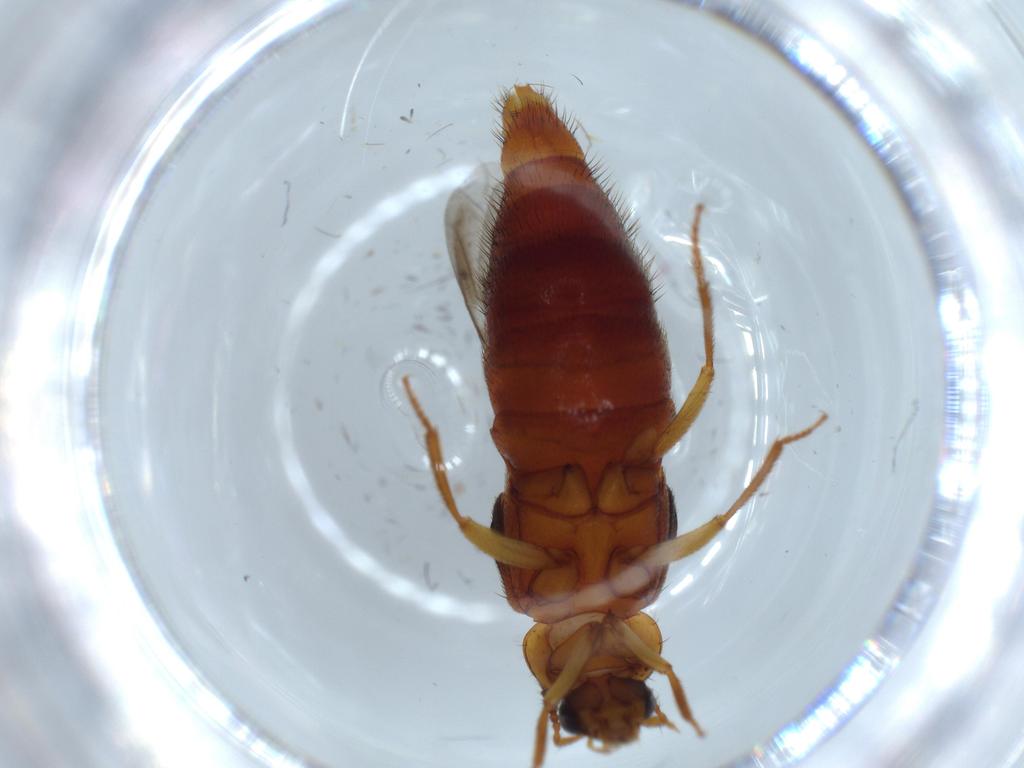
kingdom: Animalia
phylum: Arthropoda
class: Insecta
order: Coleoptera
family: Staphylinidae
